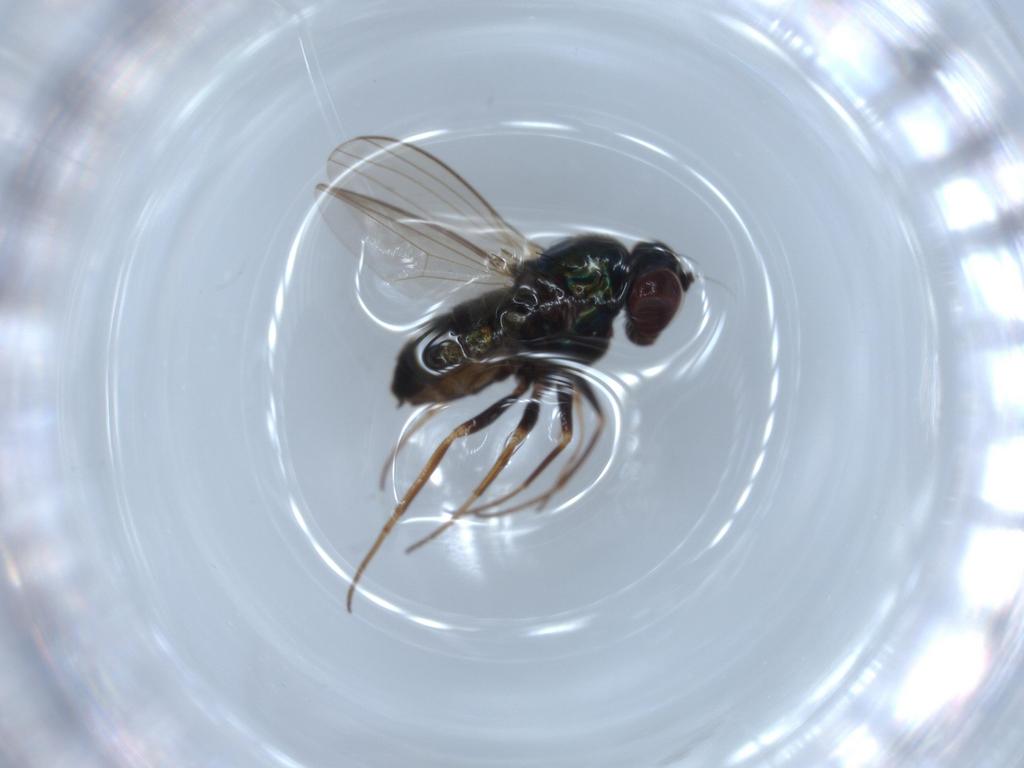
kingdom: Animalia
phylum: Arthropoda
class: Insecta
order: Diptera
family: Dolichopodidae
